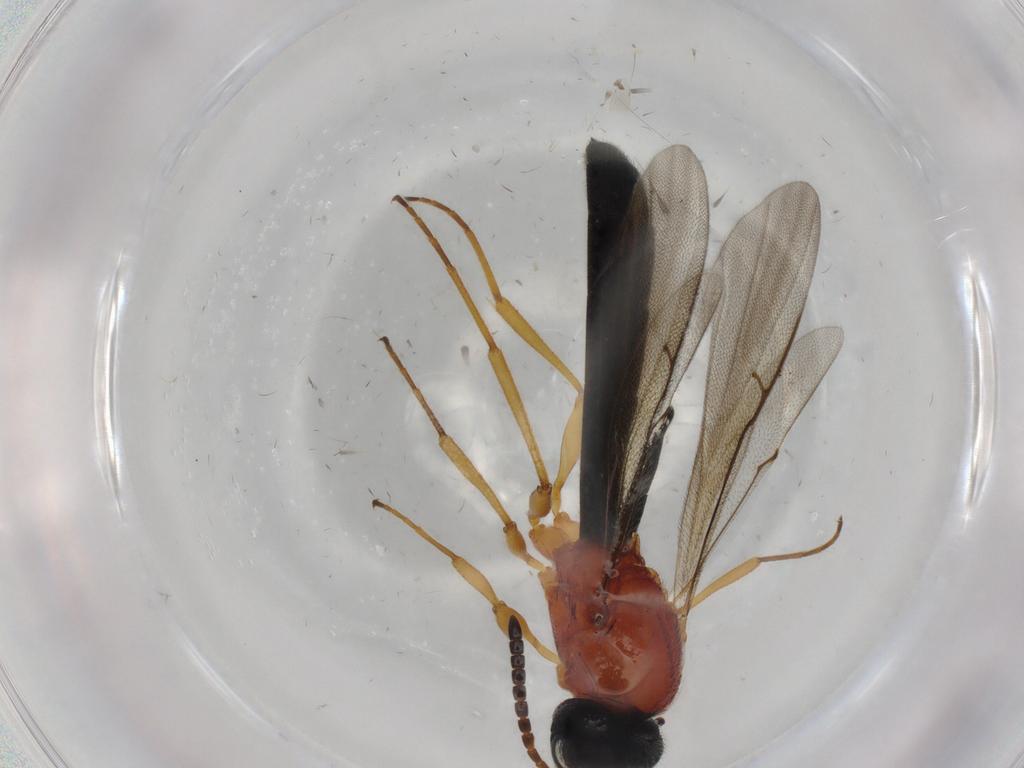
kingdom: Animalia
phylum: Arthropoda
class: Insecta
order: Hymenoptera
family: Scelionidae
